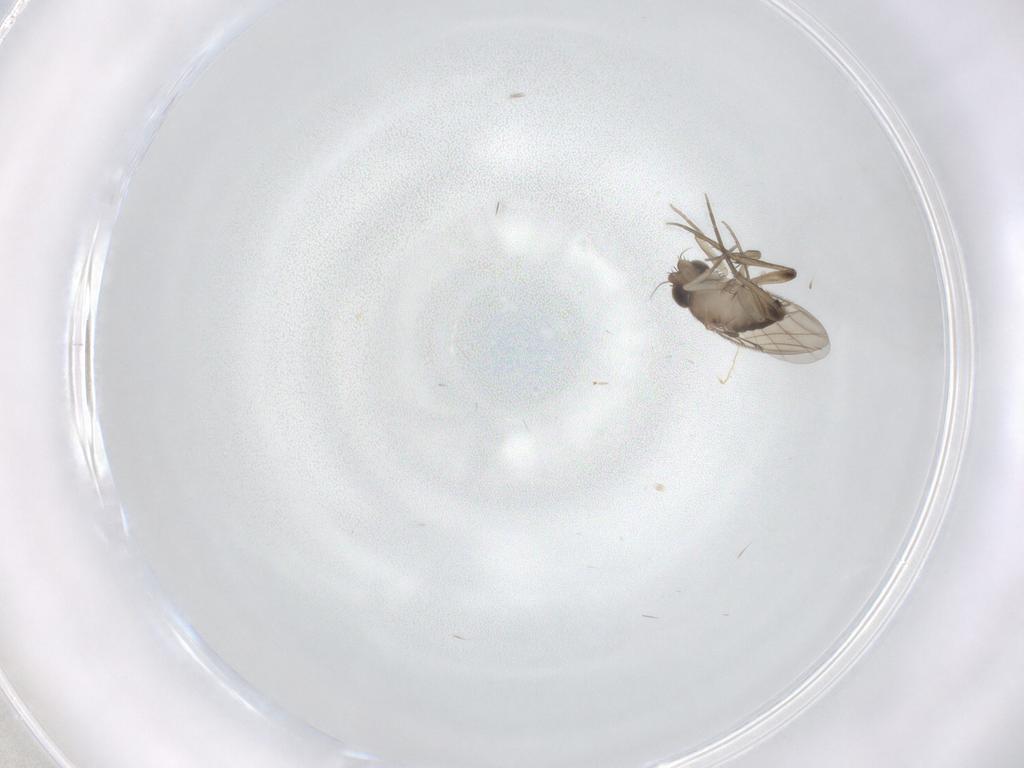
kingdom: Animalia
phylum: Arthropoda
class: Insecta
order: Diptera
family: Phoridae
